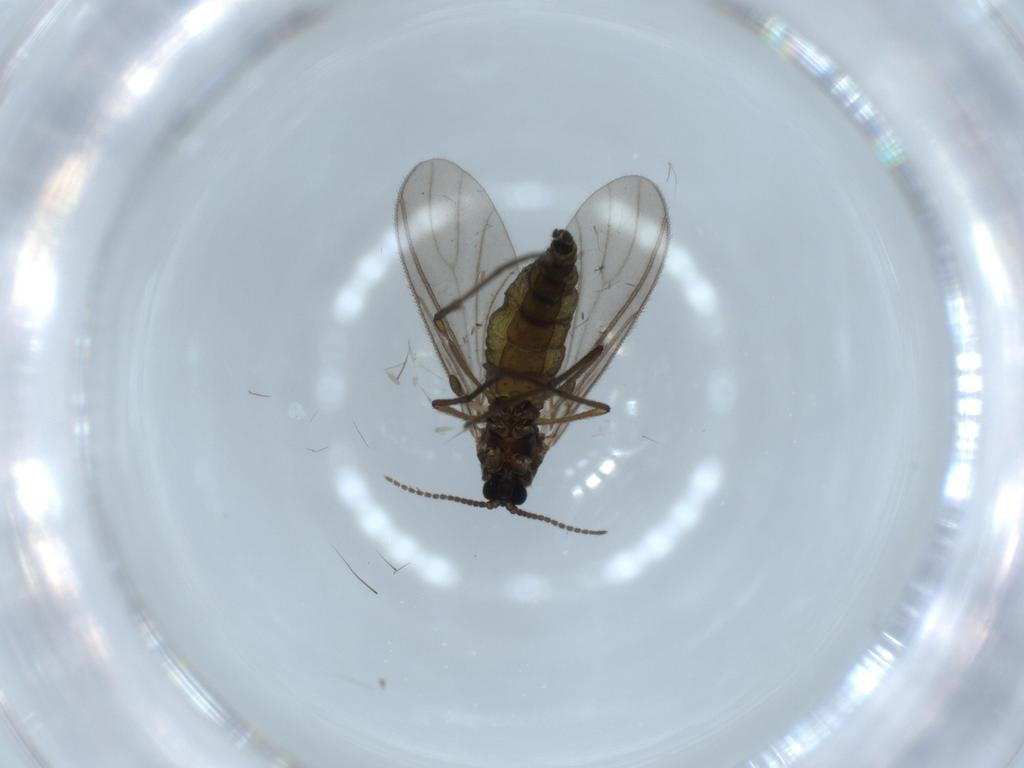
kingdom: Animalia
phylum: Arthropoda
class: Insecta
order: Diptera
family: Sciaridae
